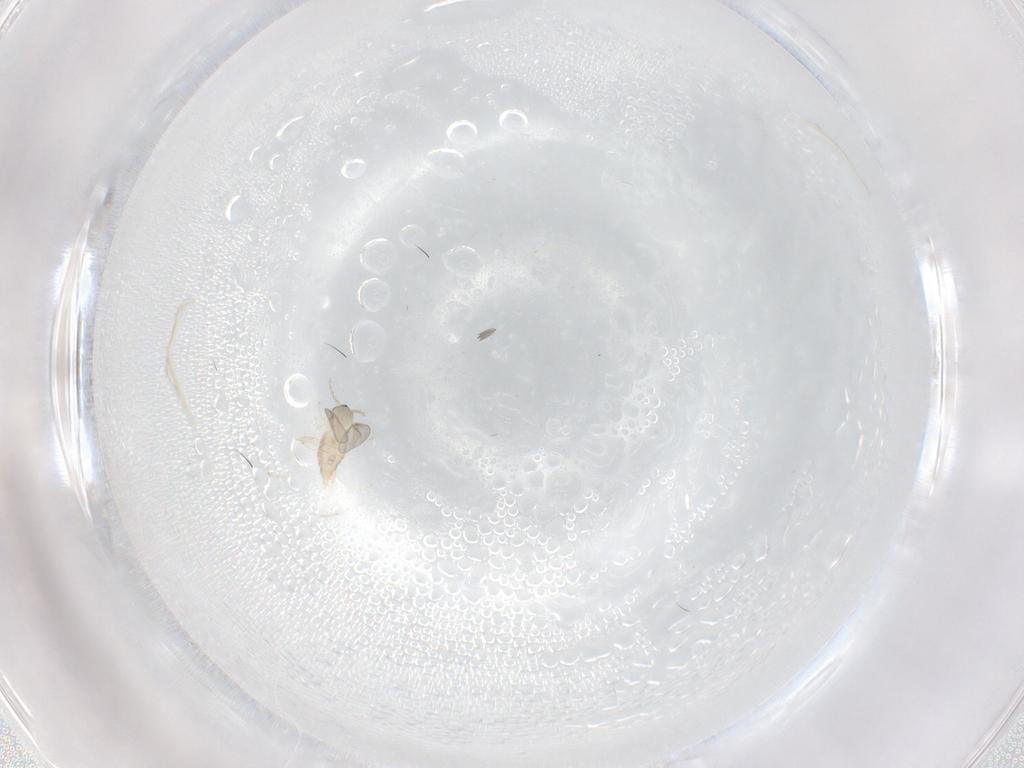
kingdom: Animalia
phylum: Arthropoda
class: Insecta
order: Diptera
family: Cecidomyiidae
